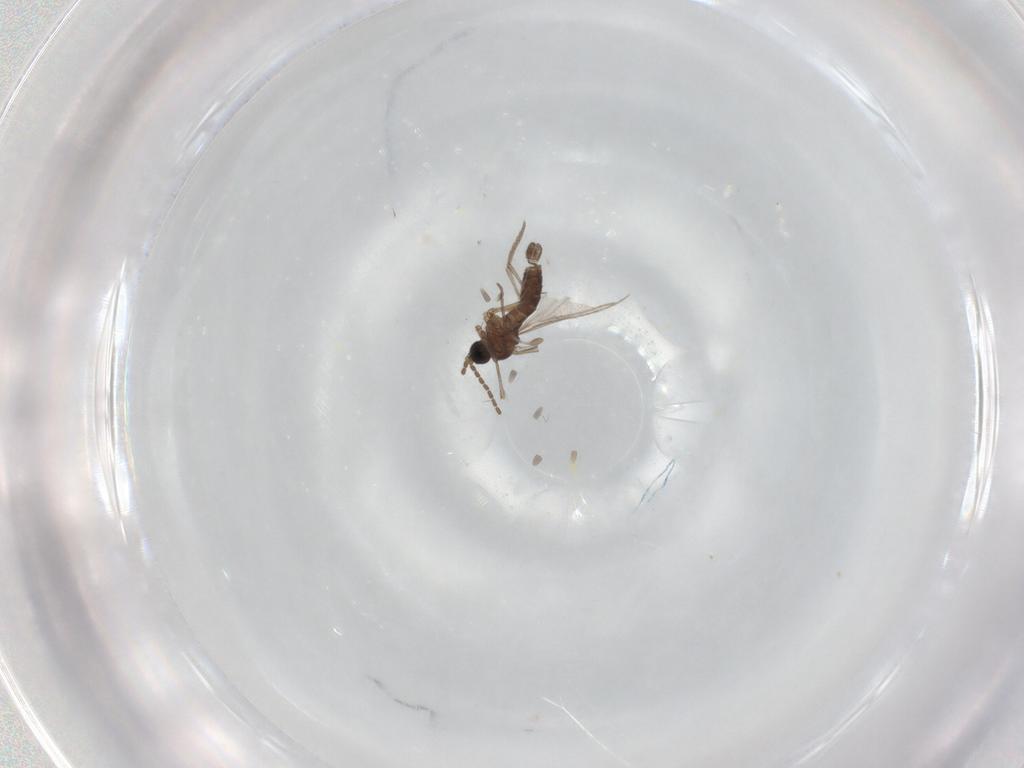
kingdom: Animalia
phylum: Arthropoda
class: Insecta
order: Diptera
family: Sciaridae
